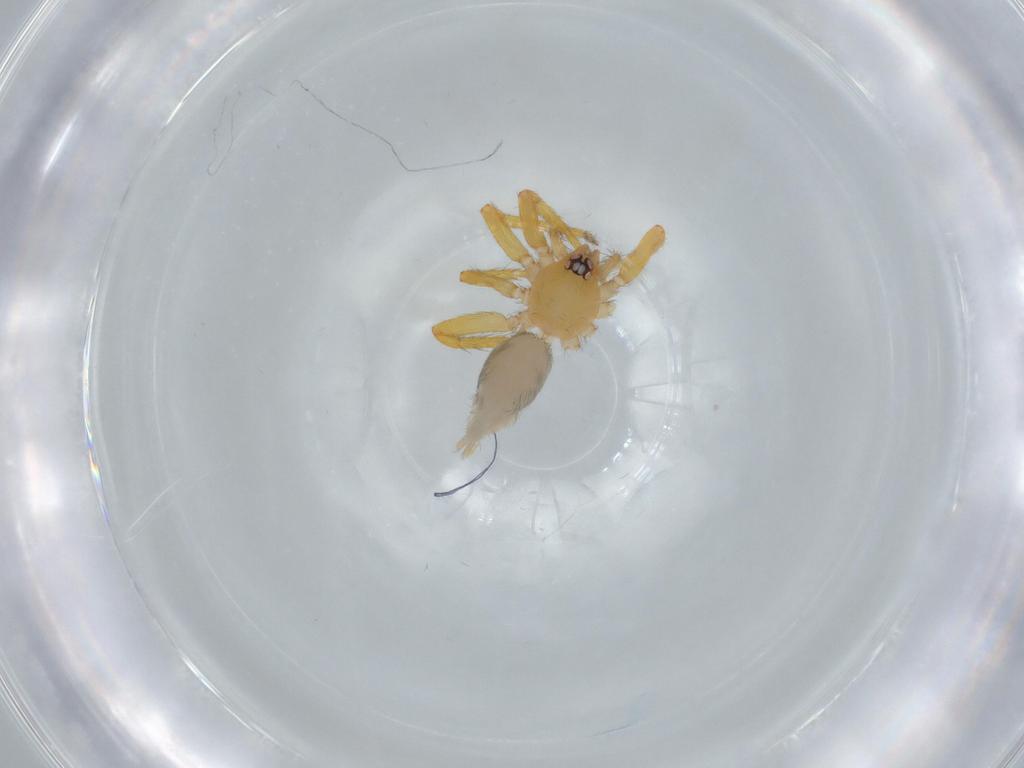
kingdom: Animalia
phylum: Arthropoda
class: Arachnida
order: Araneae
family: Oonopidae
